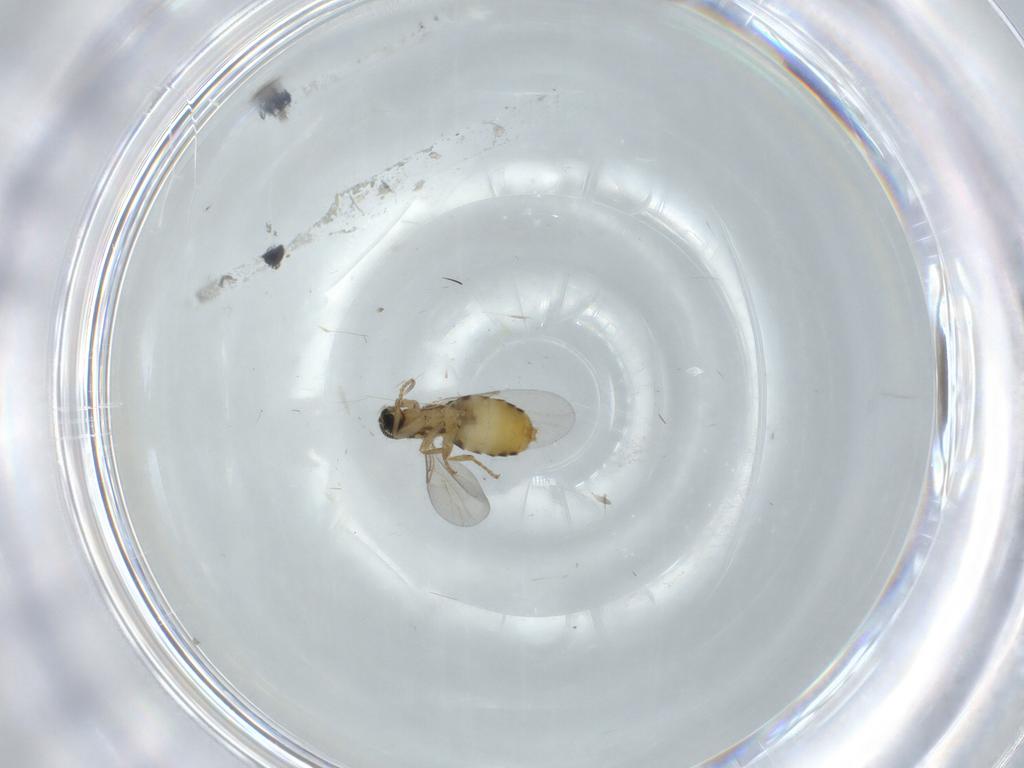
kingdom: Animalia
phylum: Arthropoda
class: Insecta
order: Diptera
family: Scatopsidae
